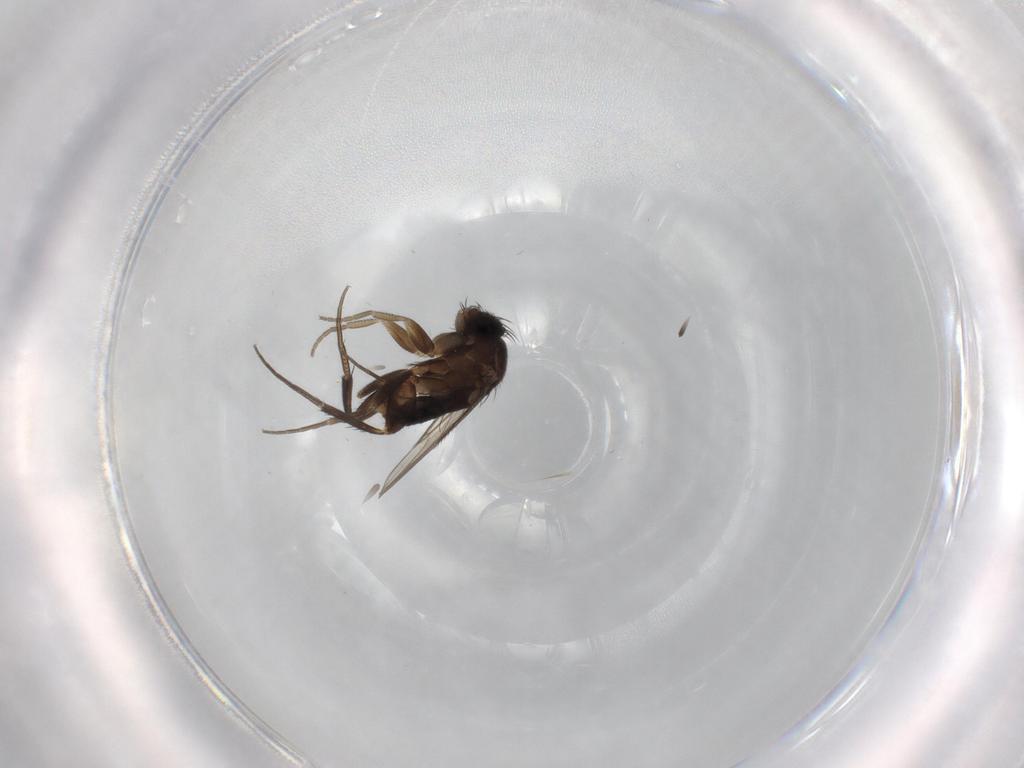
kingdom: Animalia
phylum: Arthropoda
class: Insecta
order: Diptera
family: Phoridae
